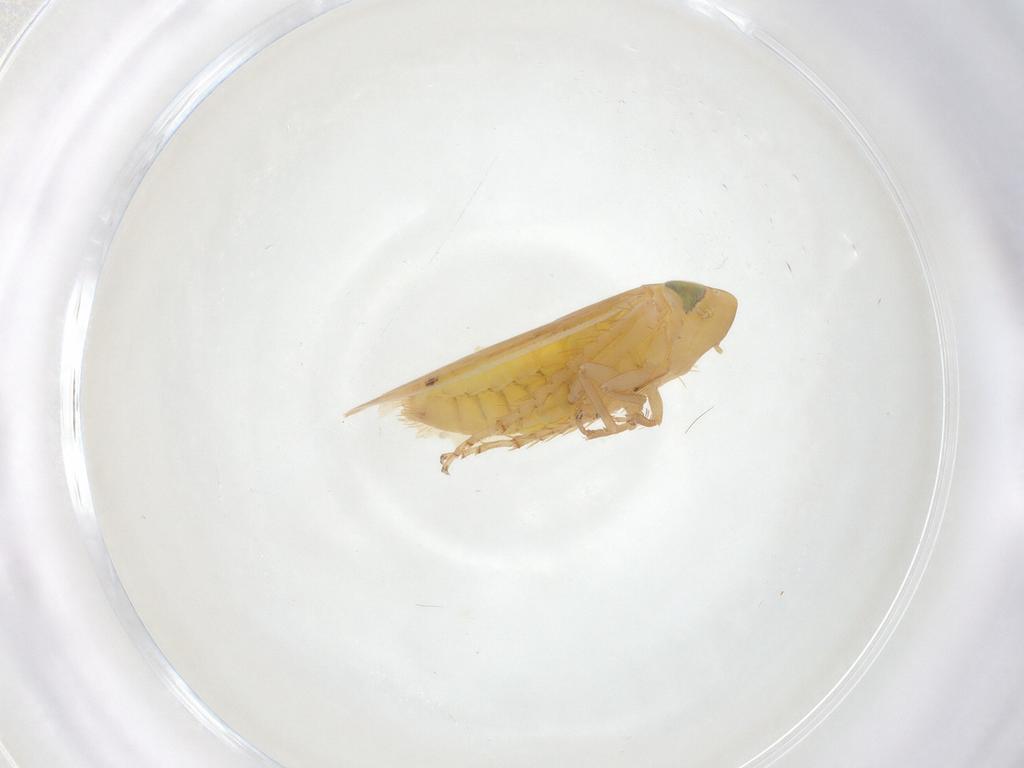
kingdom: Animalia
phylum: Arthropoda
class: Insecta
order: Hemiptera
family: Cicadellidae
